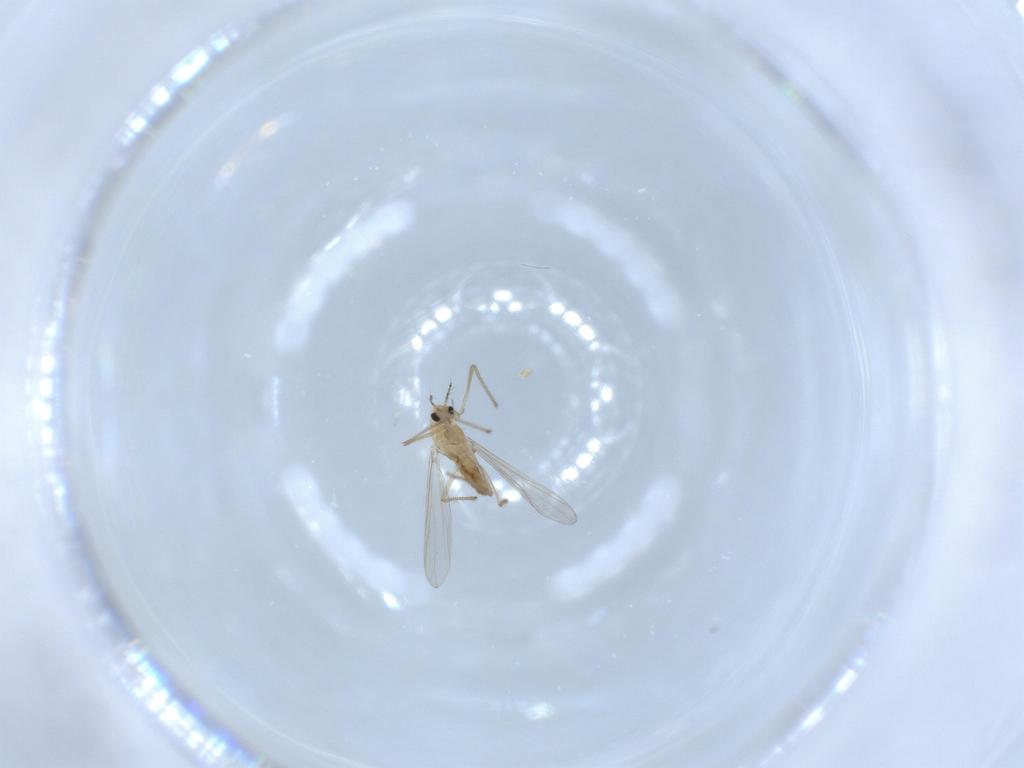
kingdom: Animalia
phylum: Arthropoda
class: Insecta
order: Diptera
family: Chironomidae
